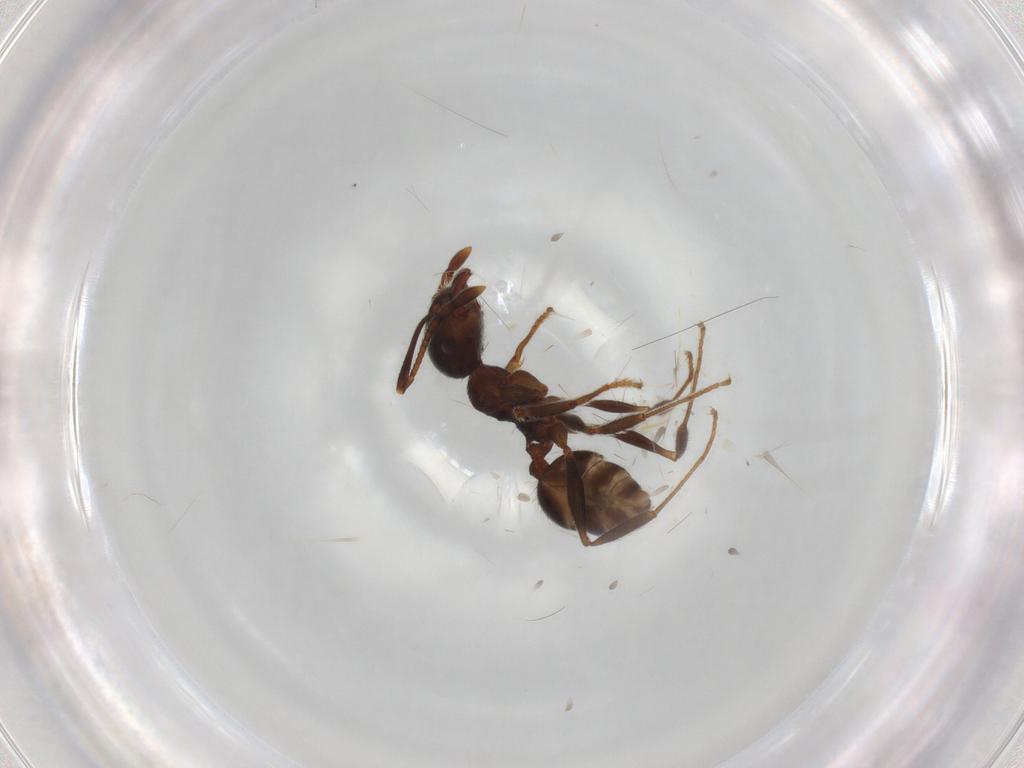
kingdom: Animalia
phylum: Arthropoda
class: Insecta
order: Hymenoptera
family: Formicidae
